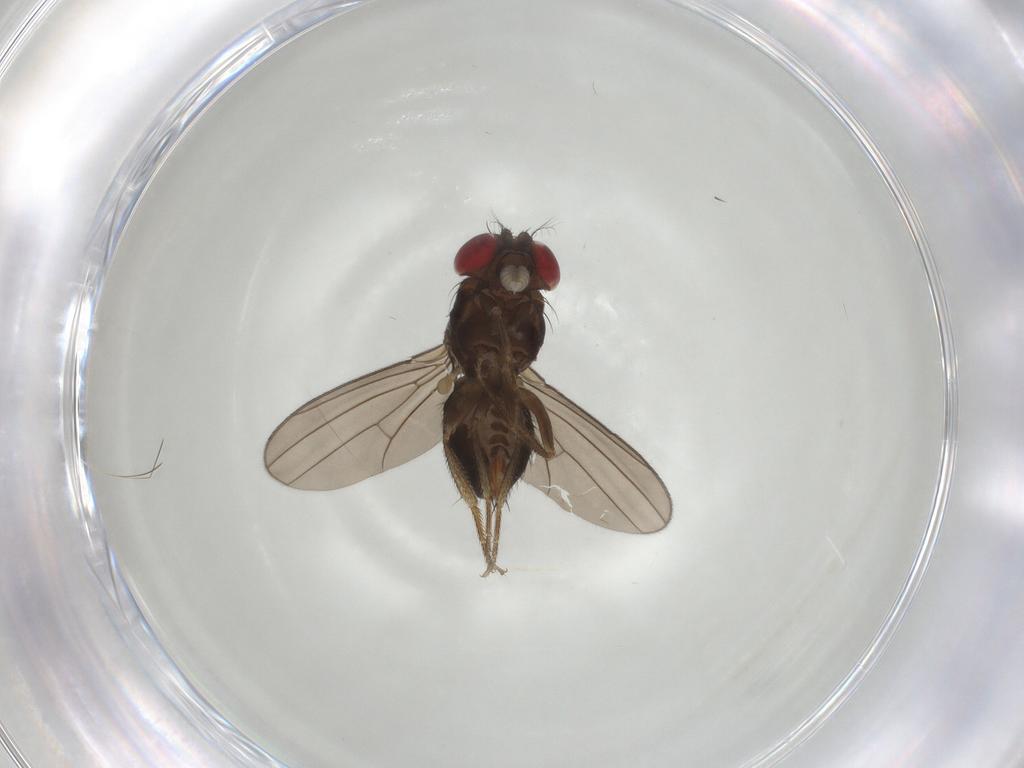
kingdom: Animalia
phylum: Arthropoda
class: Insecta
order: Diptera
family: Drosophilidae
